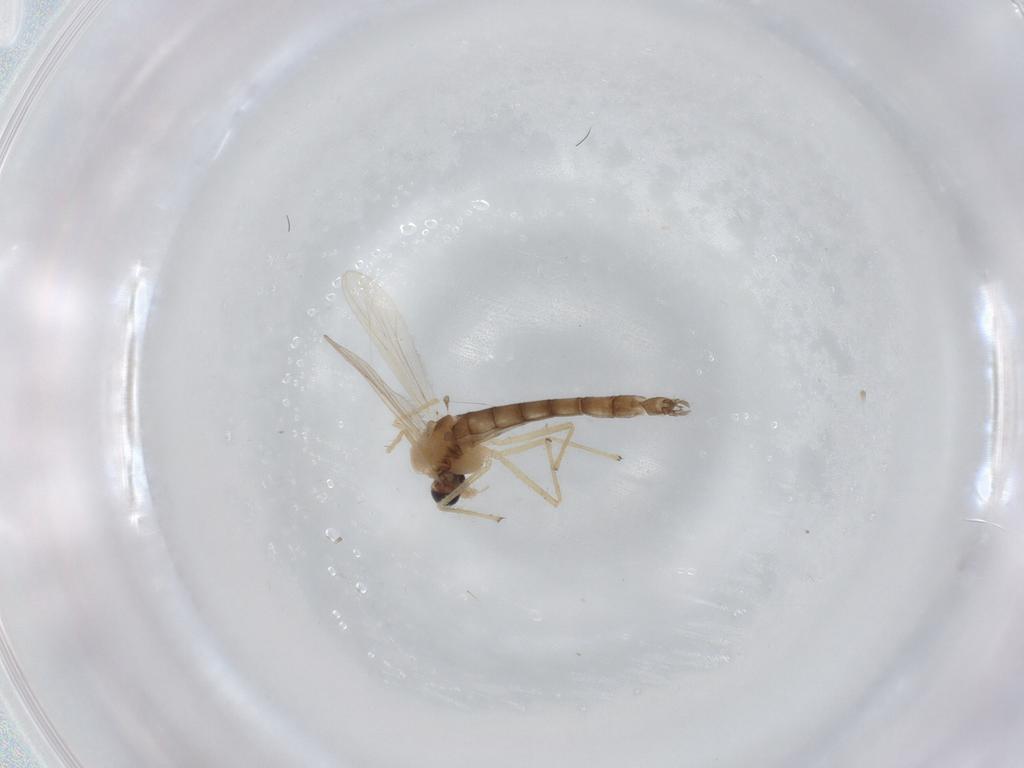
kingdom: Animalia
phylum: Arthropoda
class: Insecta
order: Diptera
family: Chironomidae
